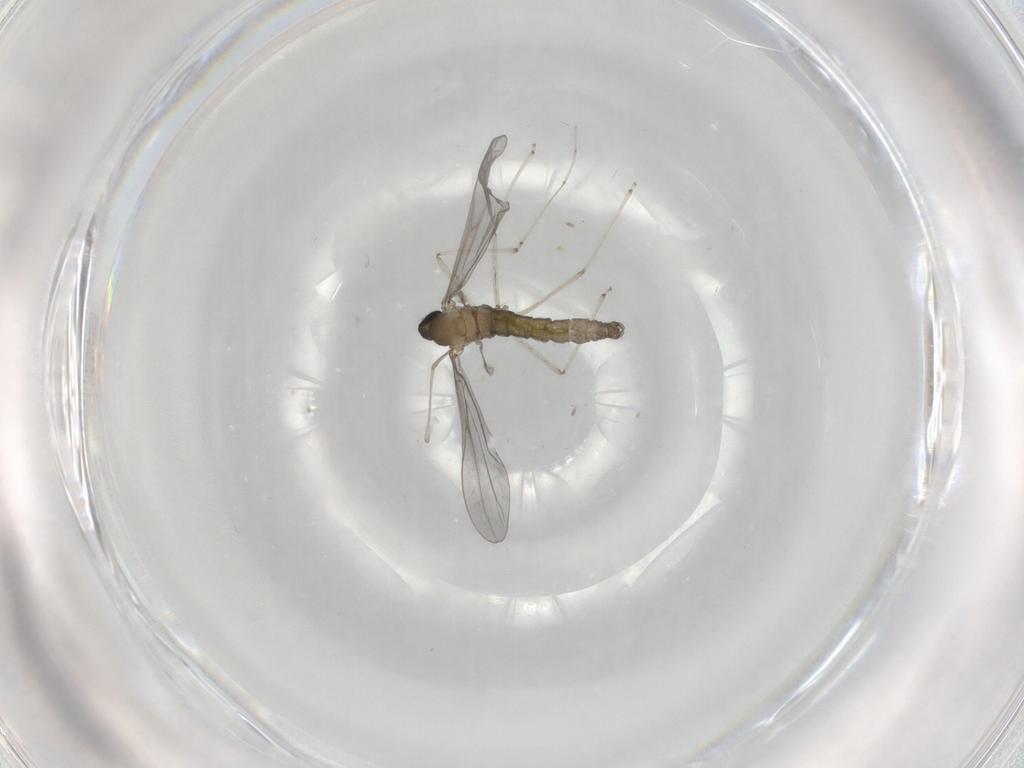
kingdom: Animalia
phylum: Arthropoda
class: Insecta
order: Diptera
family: Cecidomyiidae
